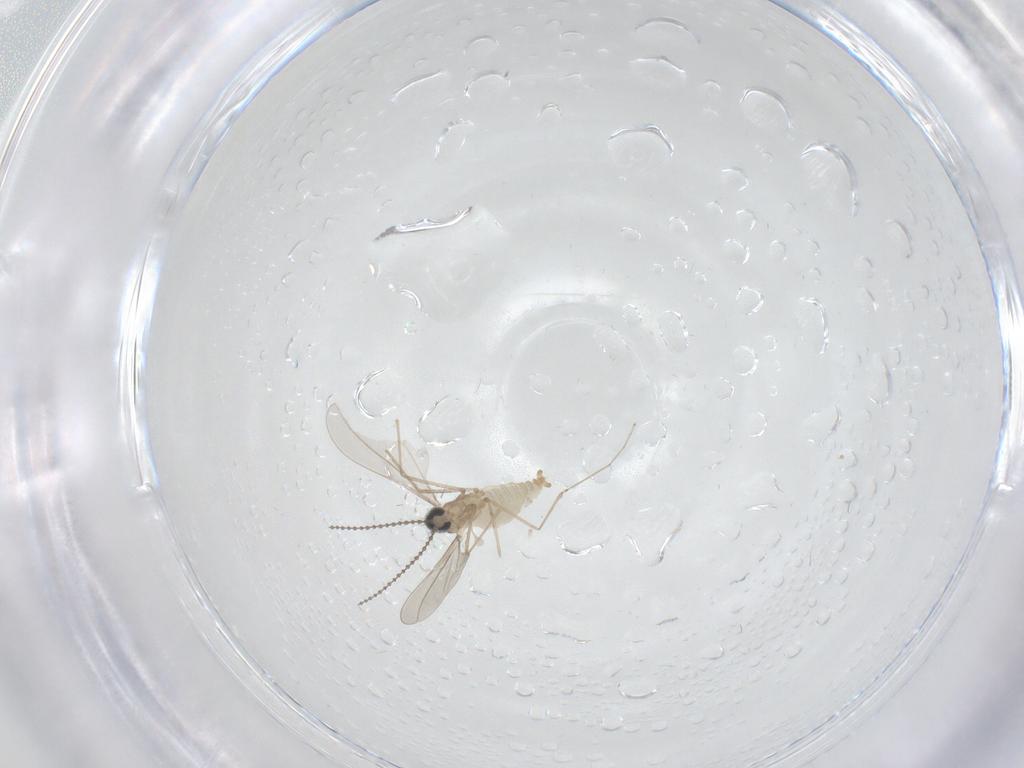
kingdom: Animalia
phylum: Arthropoda
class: Insecta
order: Diptera
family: Cecidomyiidae
